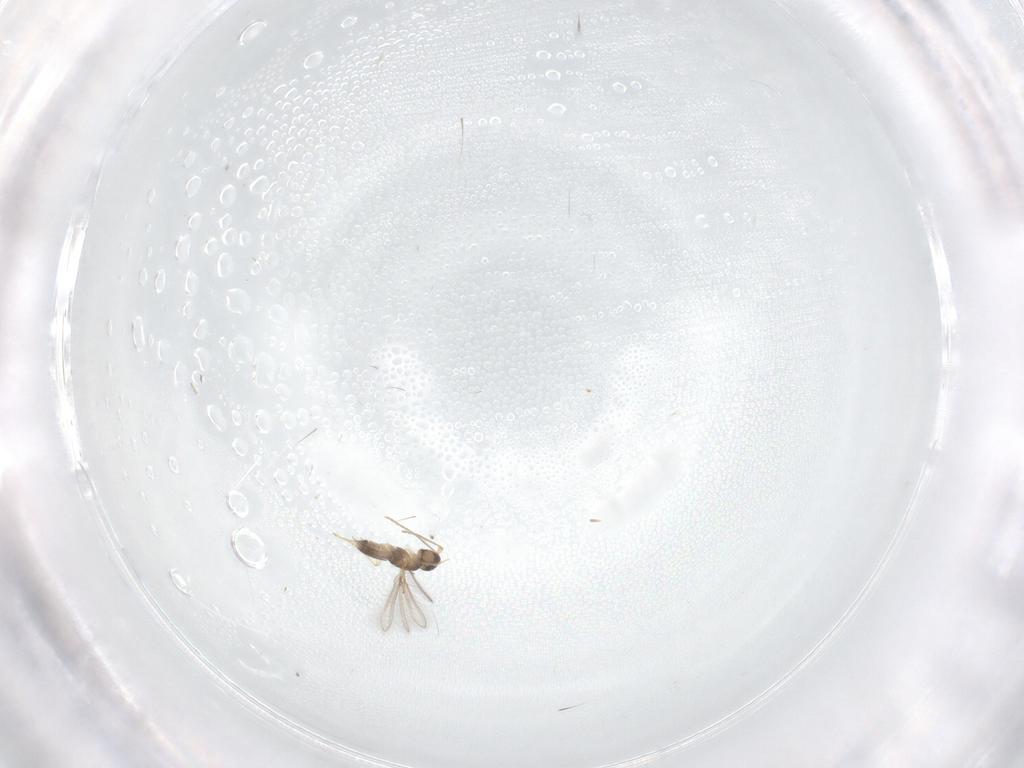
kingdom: Animalia
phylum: Arthropoda
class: Insecta
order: Hymenoptera
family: Mymaridae
